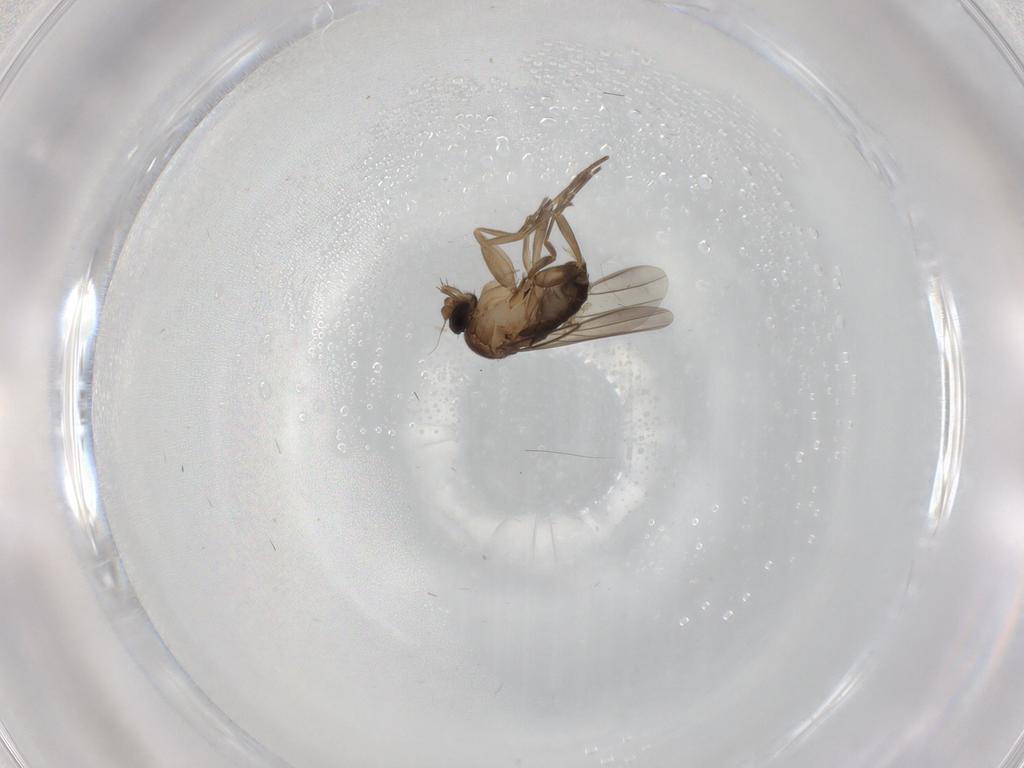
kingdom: Animalia
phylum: Arthropoda
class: Insecta
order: Diptera
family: Phoridae
